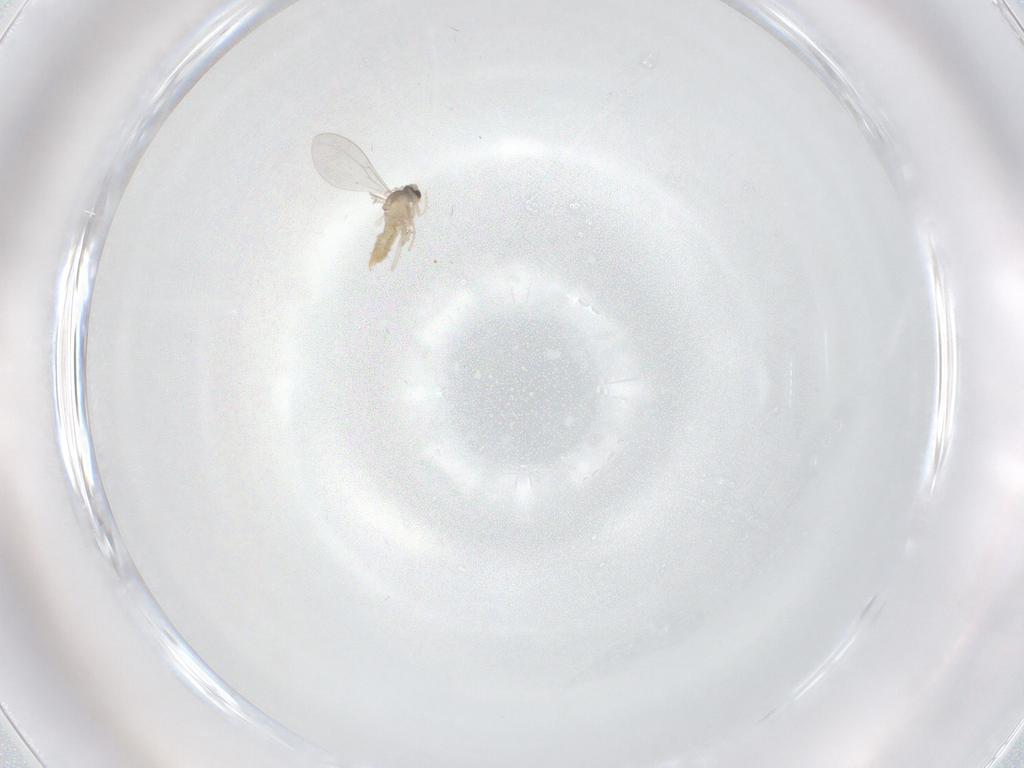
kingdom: Animalia
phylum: Arthropoda
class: Insecta
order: Diptera
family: Cecidomyiidae
